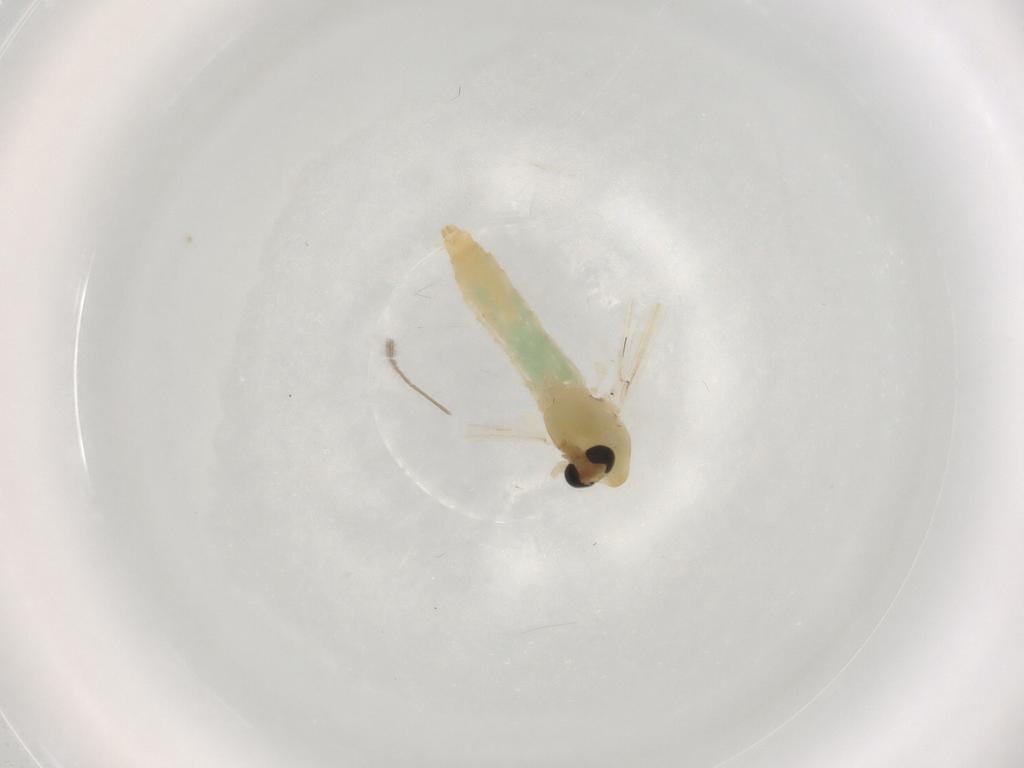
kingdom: Animalia
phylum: Arthropoda
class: Insecta
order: Diptera
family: Chironomidae
